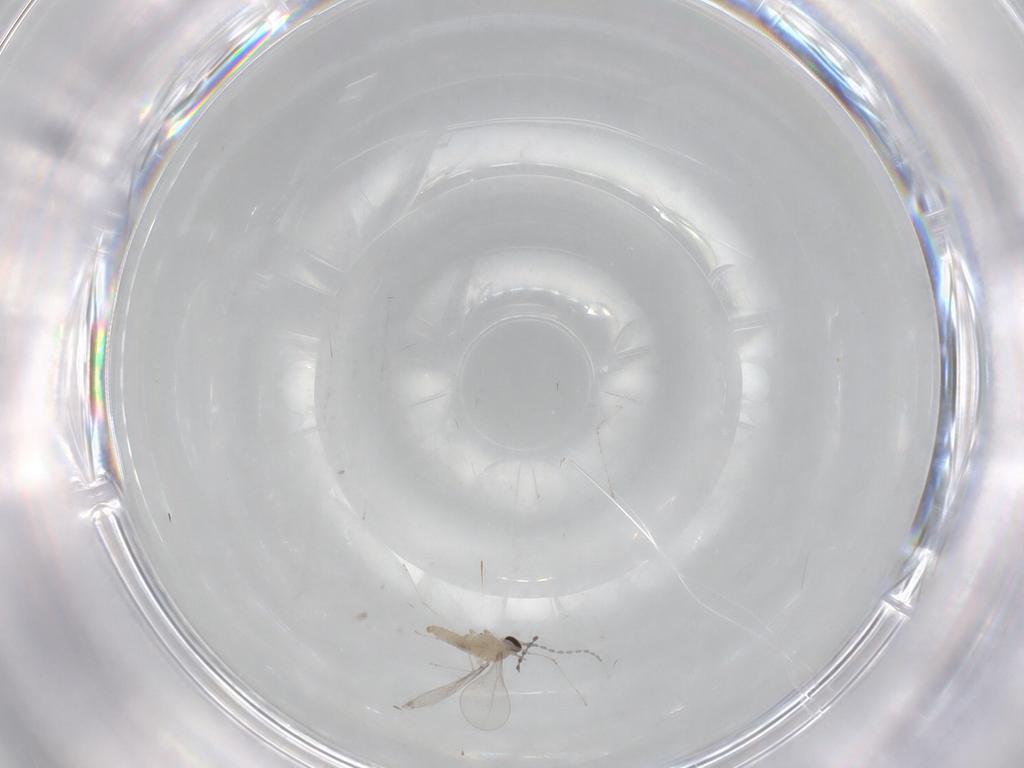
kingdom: Animalia
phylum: Arthropoda
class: Insecta
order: Diptera
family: Cecidomyiidae
